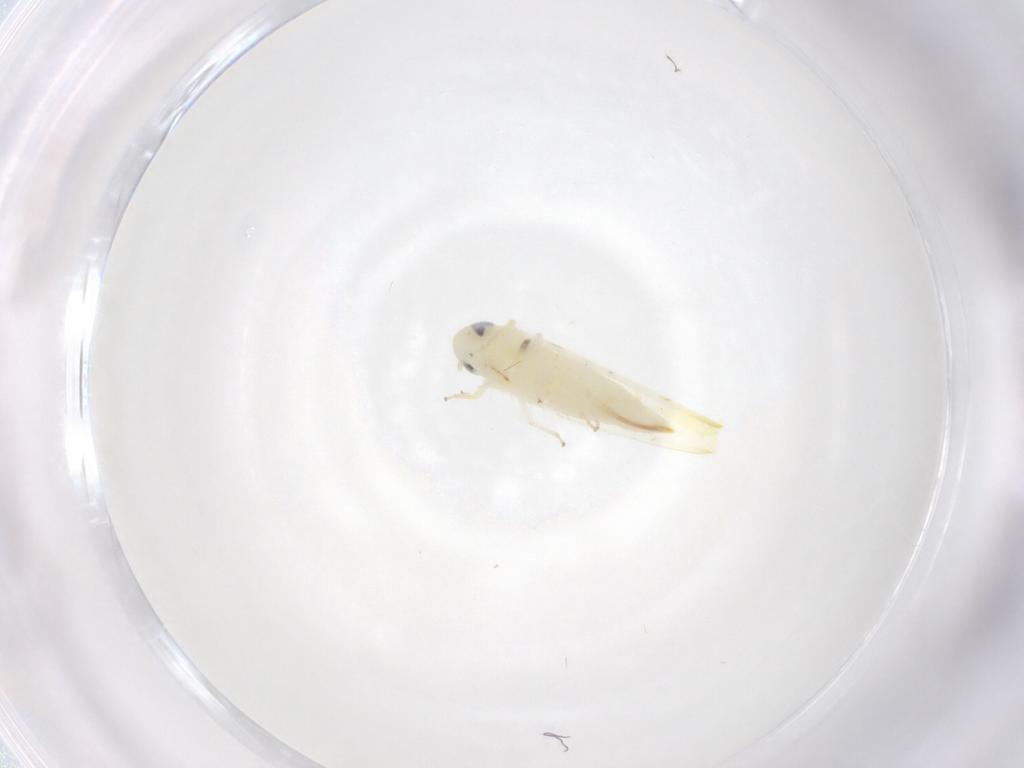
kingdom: Animalia
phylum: Arthropoda
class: Insecta
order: Hemiptera
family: Cicadellidae
